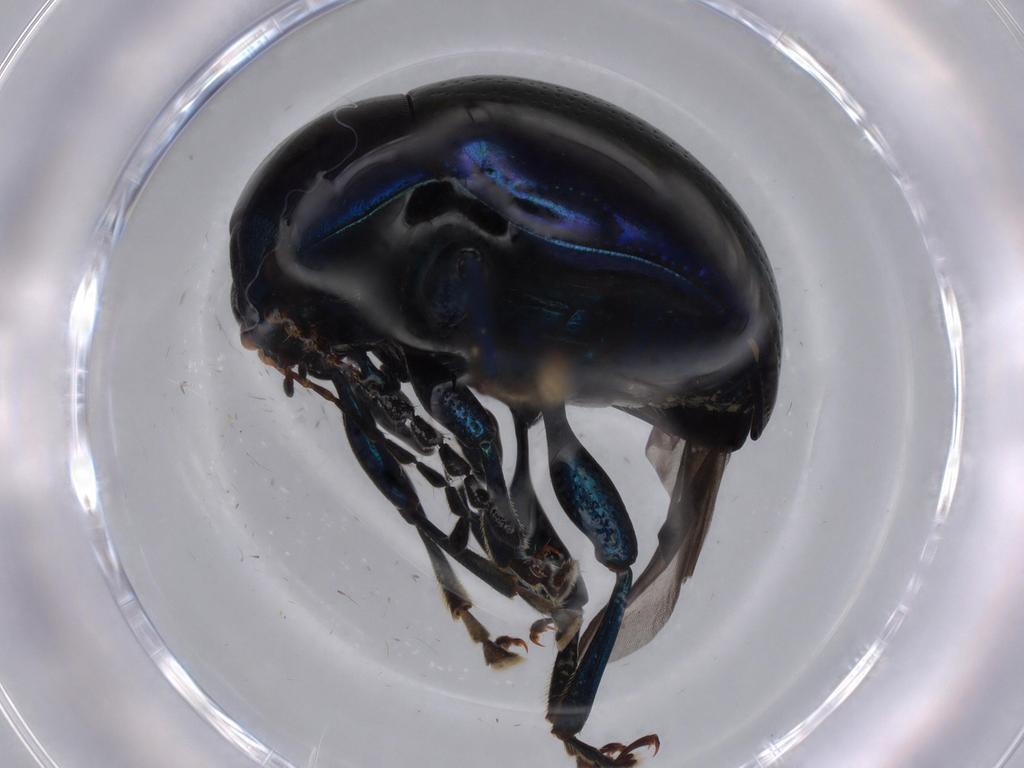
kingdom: Animalia
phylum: Arthropoda
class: Insecta
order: Coleoptera
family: Chrysomelidae
